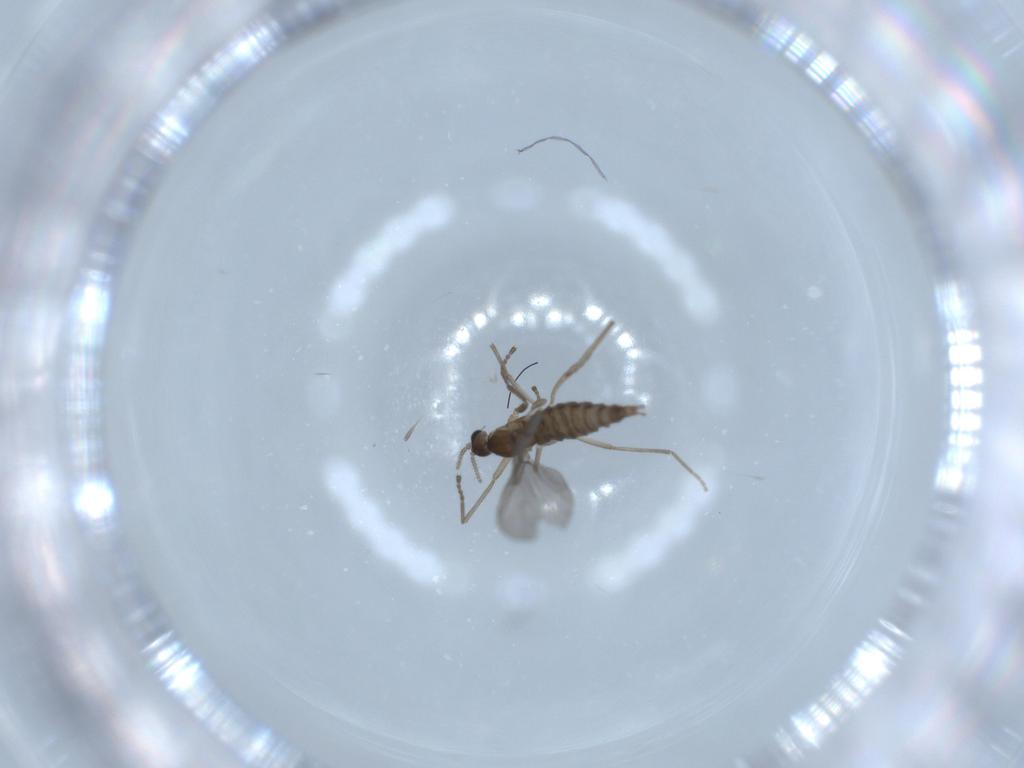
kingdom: Animalia
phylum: Arthropoda
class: Insecta
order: Diptera
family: Cecidomyiidae
